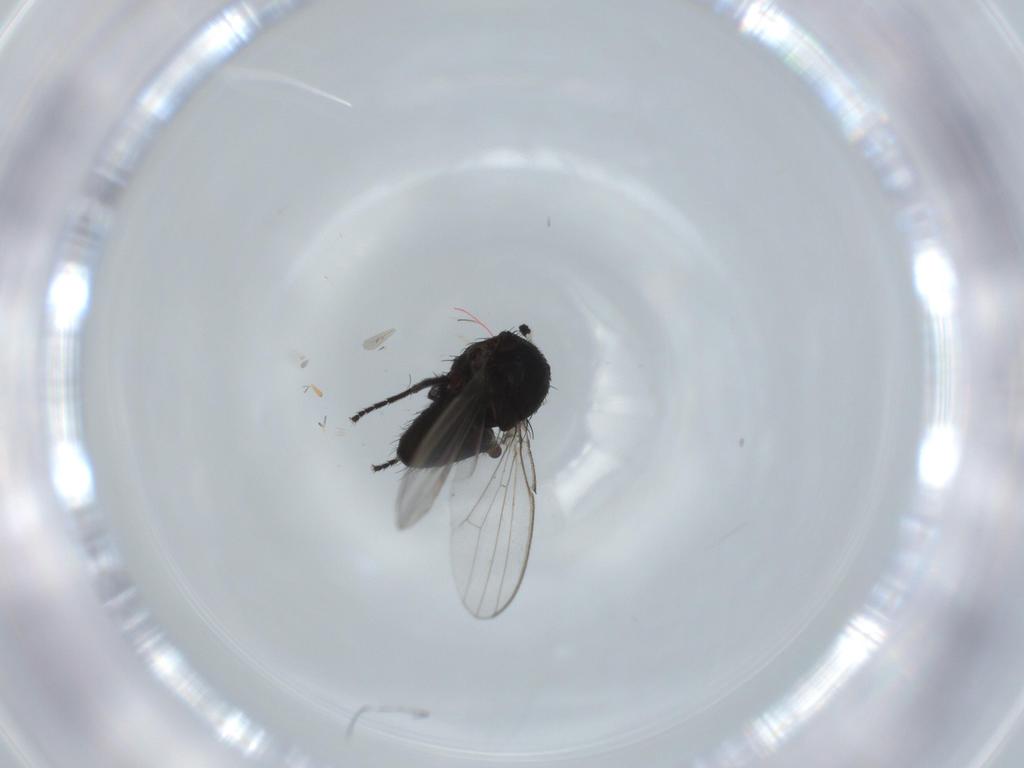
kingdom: Animalia
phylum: Arthropoda
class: Insecta
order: Diptera
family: Milichiidae
